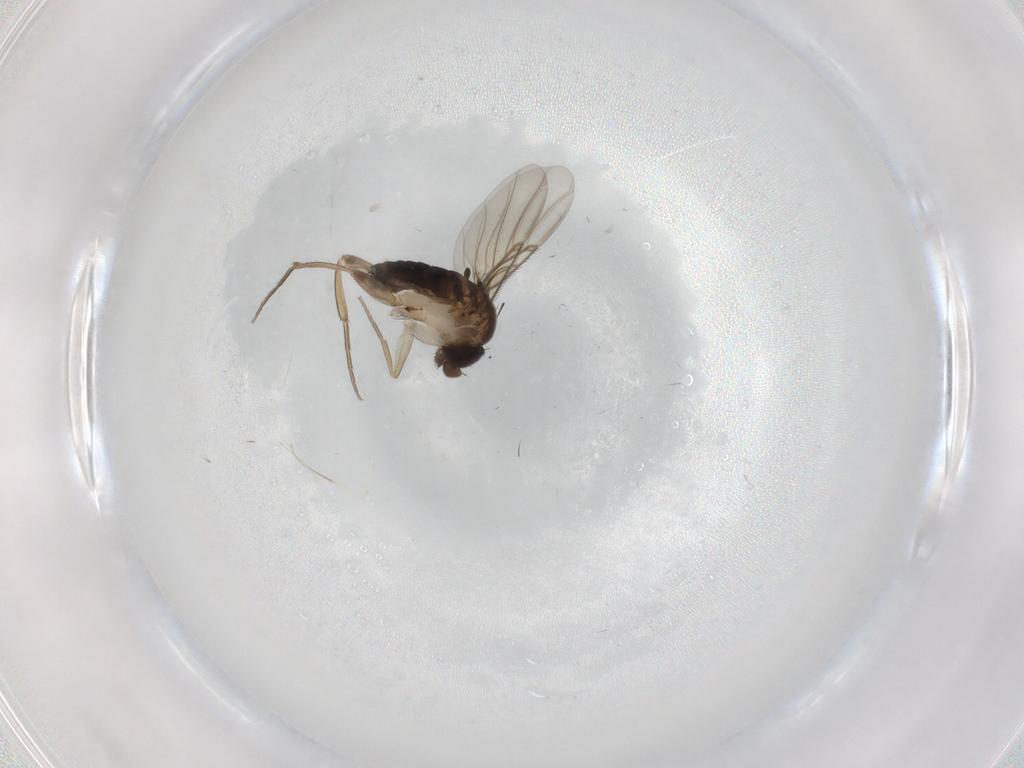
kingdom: Animalia
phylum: Arthropoda
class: Insecta
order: Diptera
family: Phoridae
